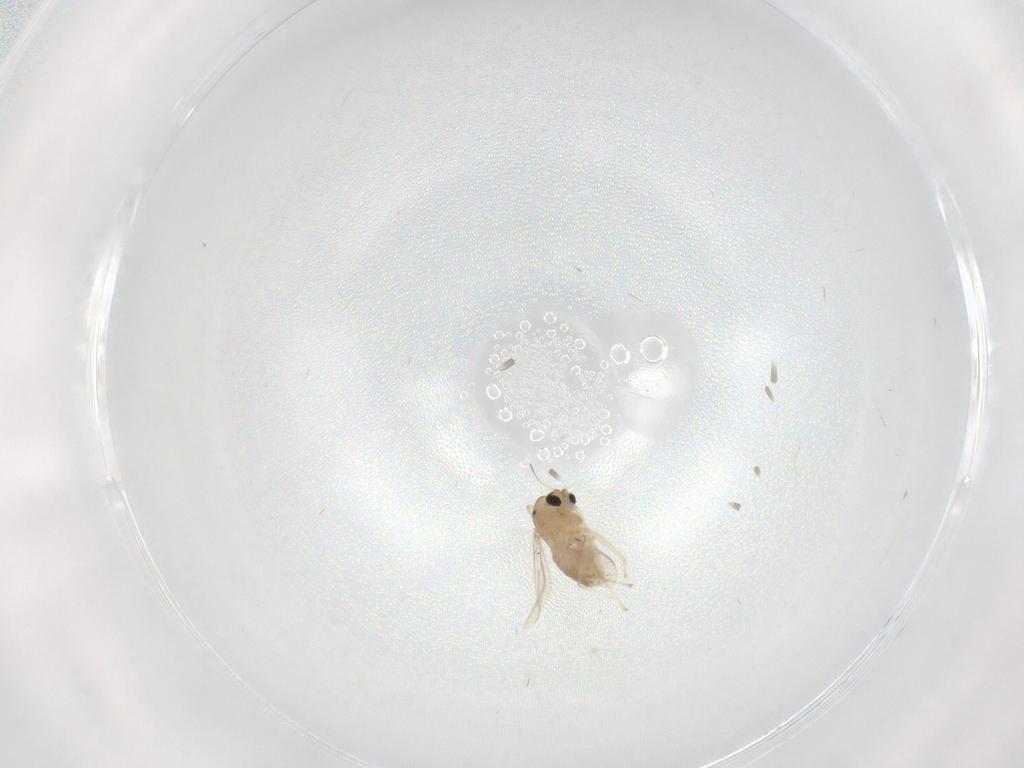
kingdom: Animalia
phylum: Arthropoda
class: Insecta
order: Diptera
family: Chironomidae
